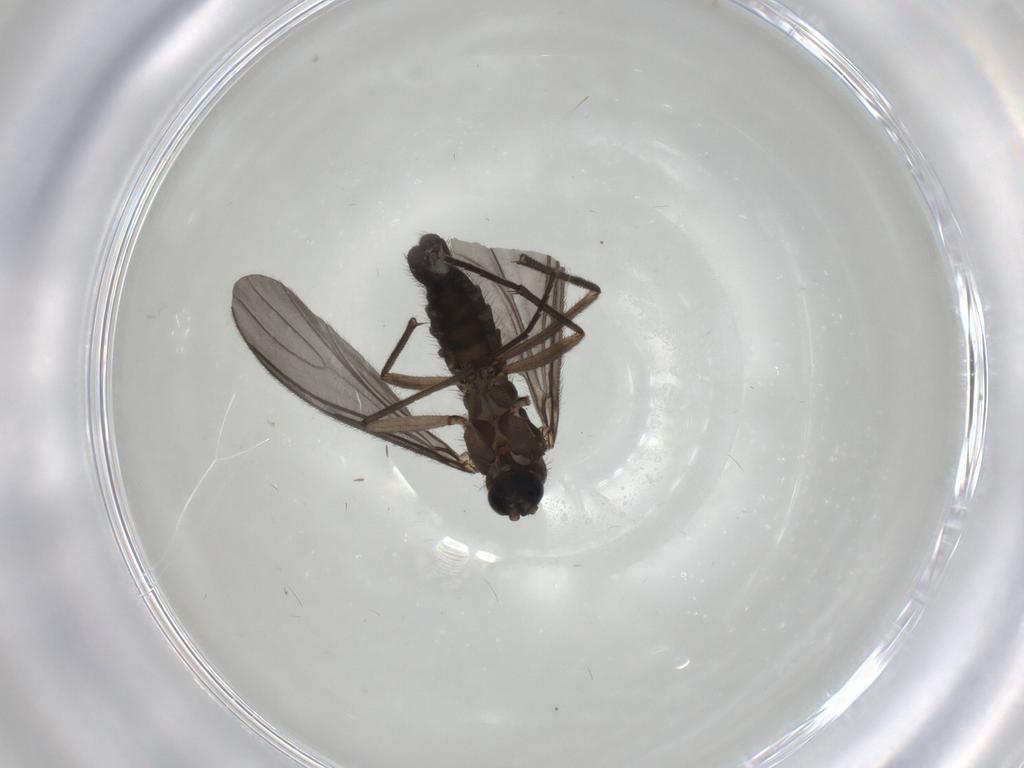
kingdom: Animalia
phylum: Arthropoda
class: Insecta
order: Diptera
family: Sciaridae
